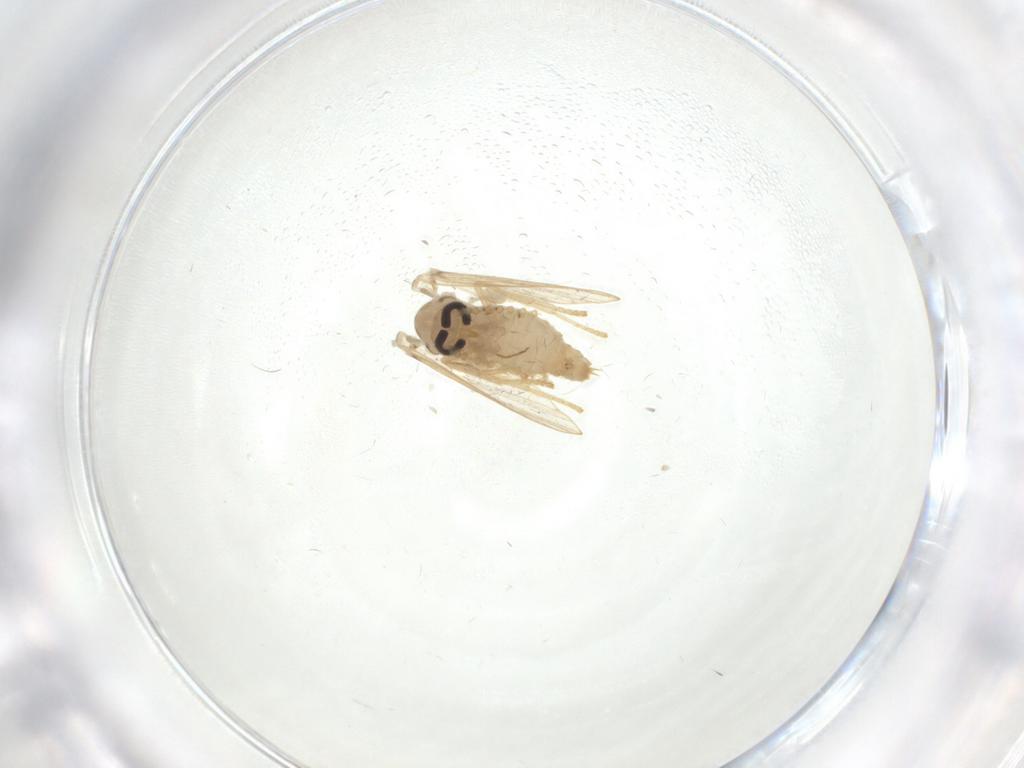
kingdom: Animalia
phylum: Arthropoda
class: Insecta
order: Diptera
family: Psychodidae
